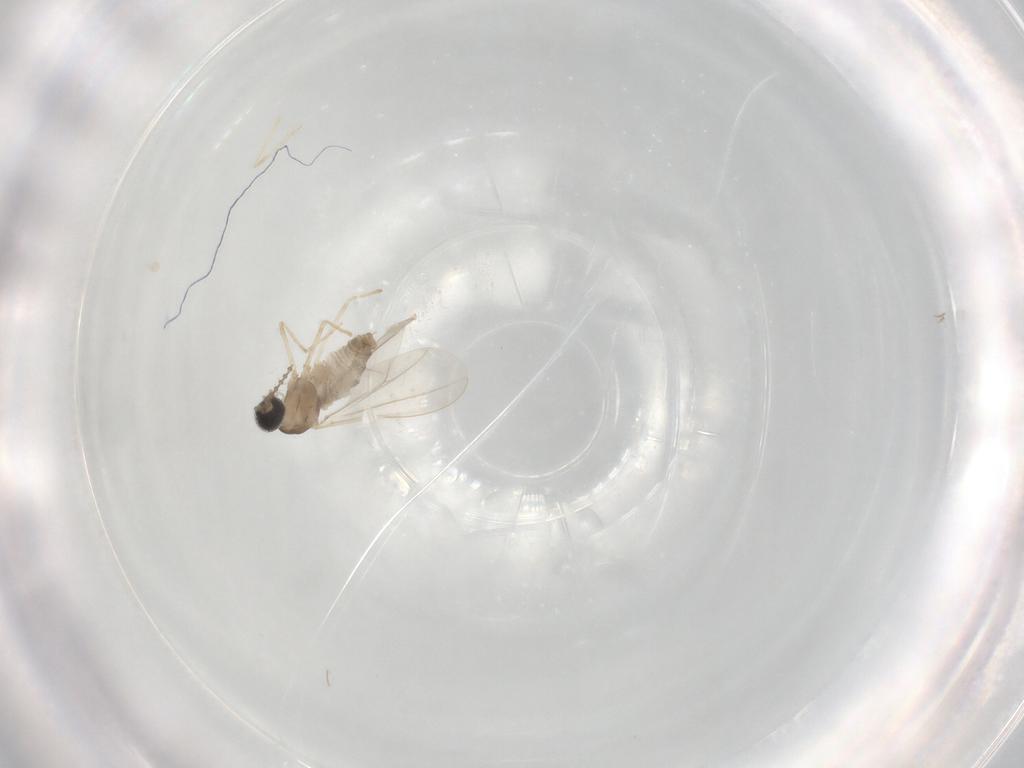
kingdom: Animalia
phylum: Arthropoda
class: Insecta
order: Diptera
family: Cecidomyiidae
